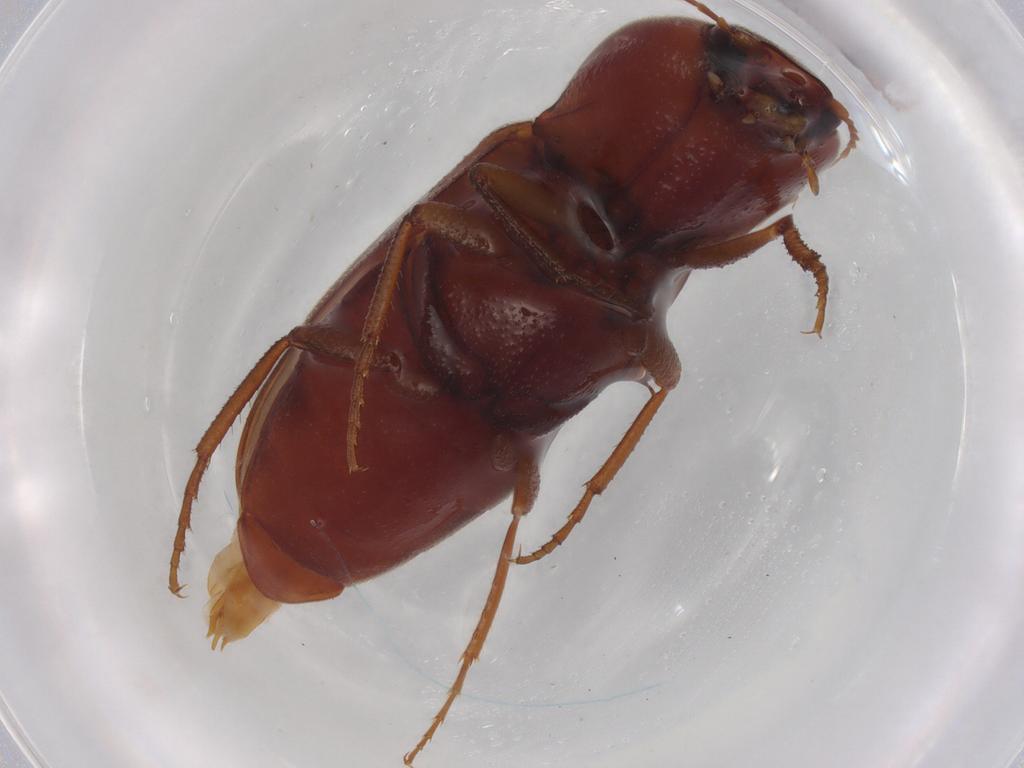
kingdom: Animalia
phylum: Arthropoda
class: Insecta
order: Coleoptera
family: Elateridae
